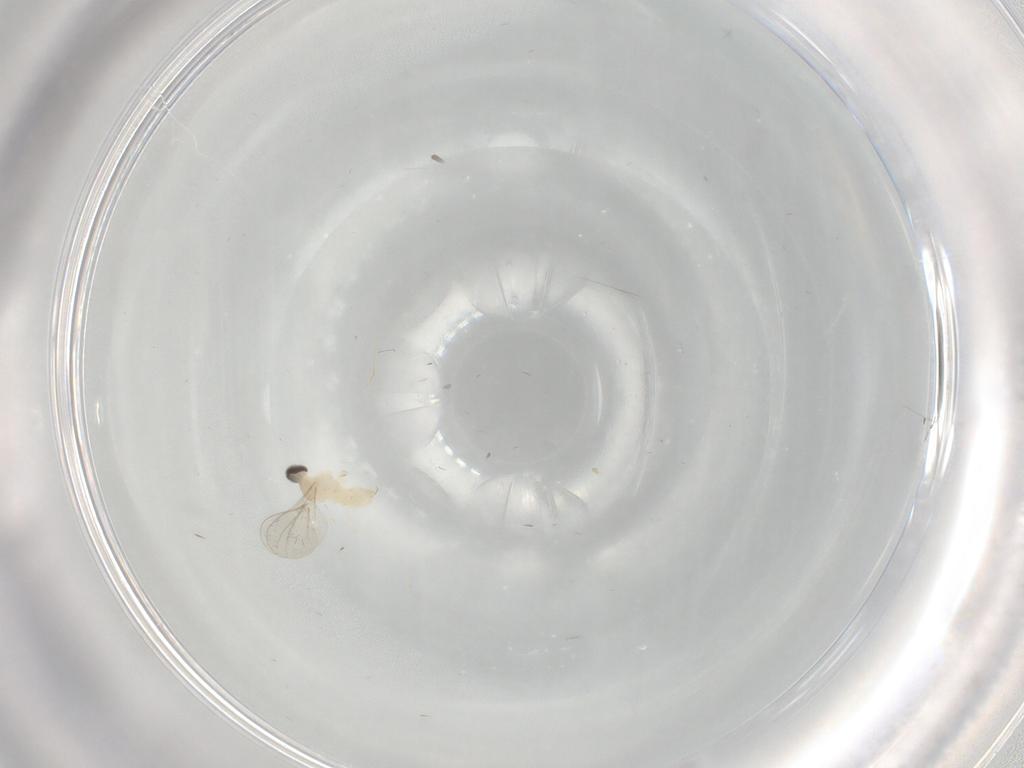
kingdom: Animalia
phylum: Arthropoda
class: Insecta
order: Diptera
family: Cecidomyiidae
